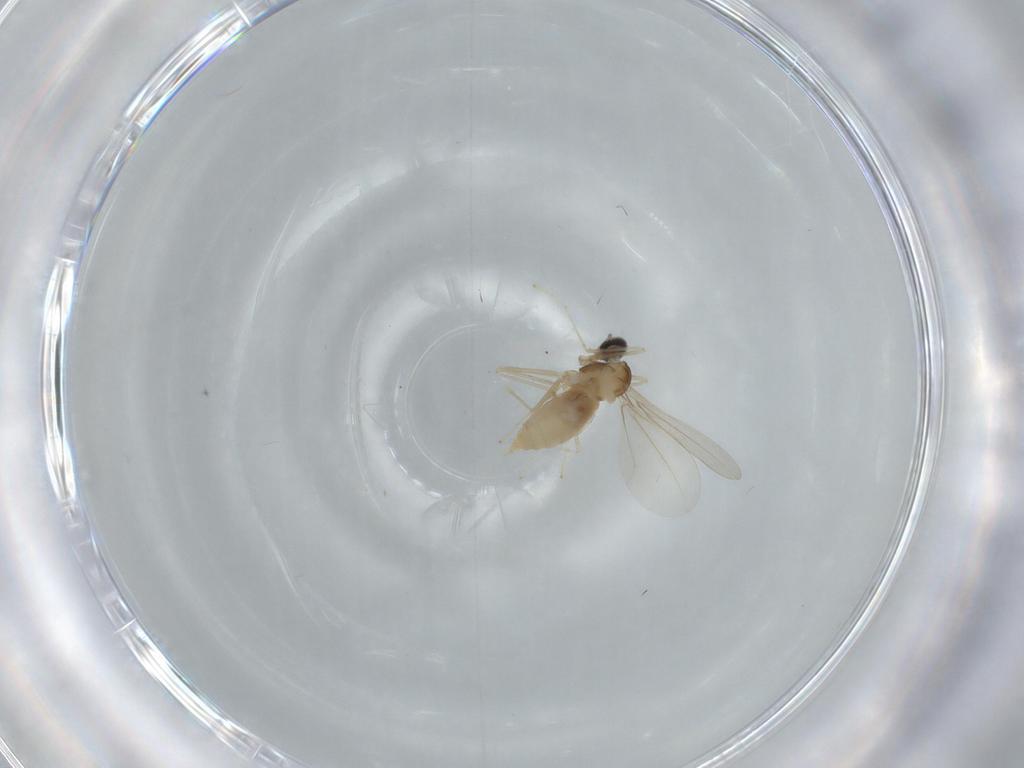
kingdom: Animalia
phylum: Arthropoda
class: Insecta
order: Diptera
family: Cecidomyiidae
